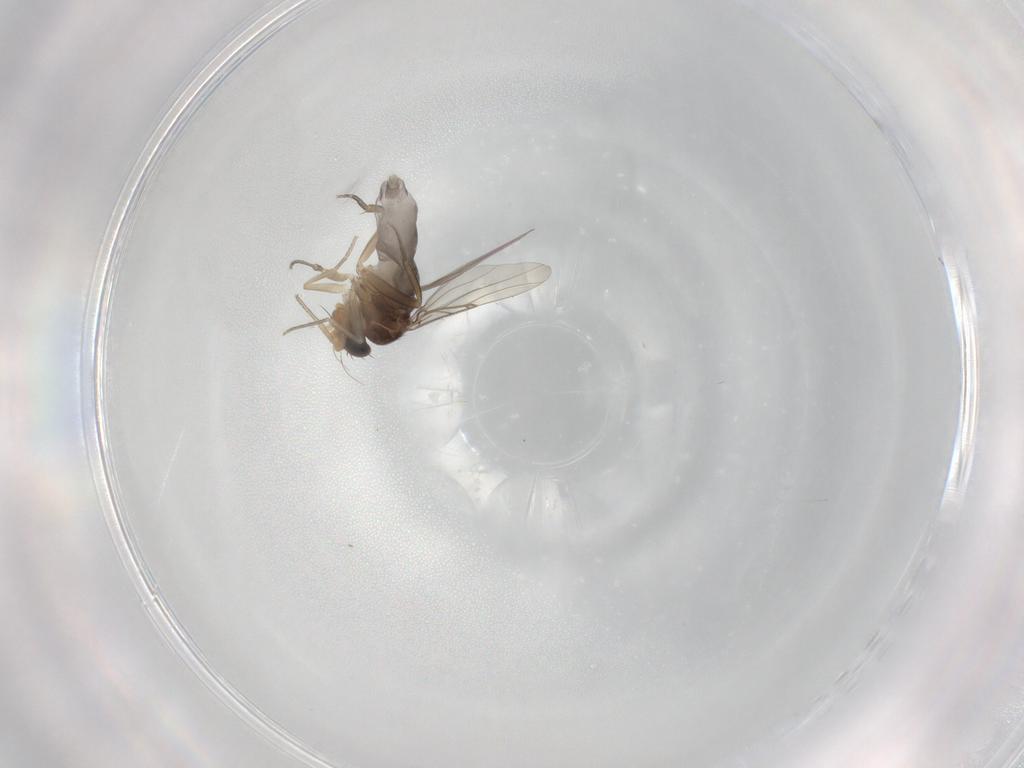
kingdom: Animalia
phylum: Arthropoda
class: Insecta
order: Diptera
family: Phoridae
